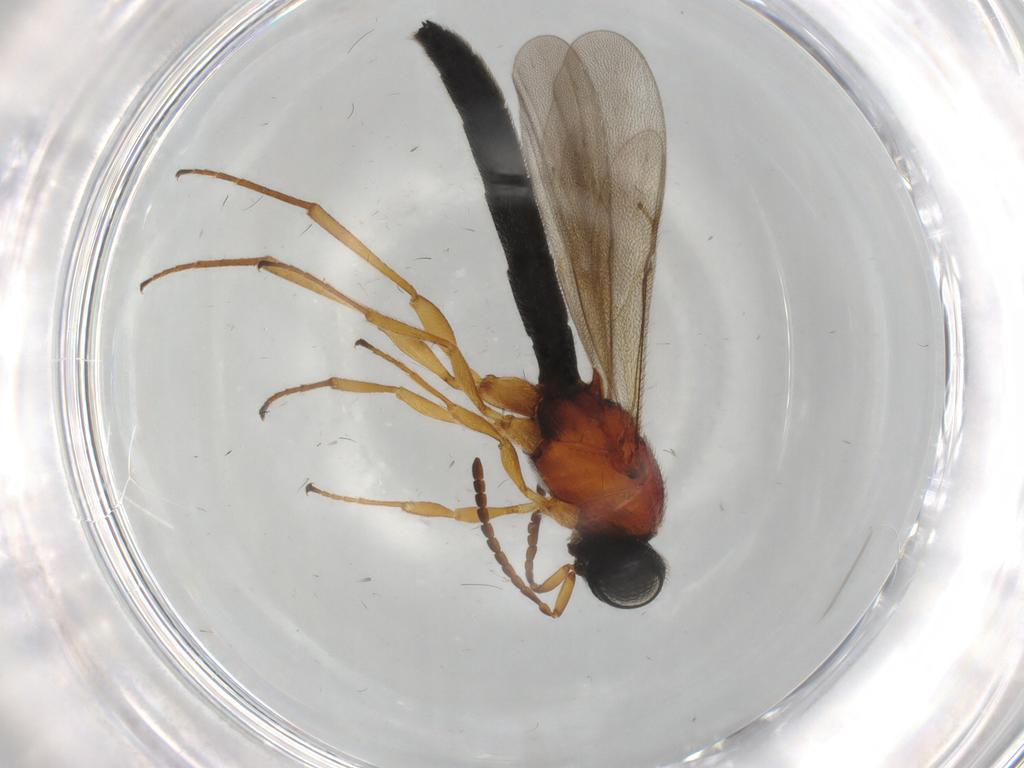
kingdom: Animalia
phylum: Arthropoda
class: Insecta
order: Hymenoptera
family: Scelionidae
